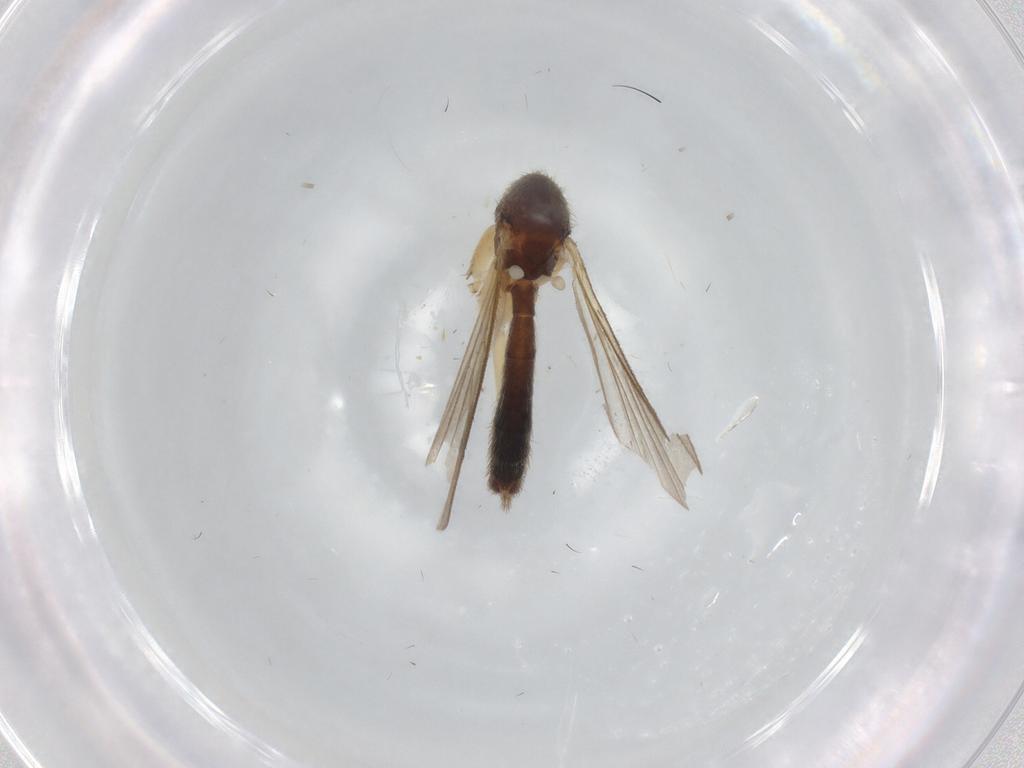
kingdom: Animalia
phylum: Arthropoda
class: Insecta
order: Diptera
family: Mycetophilidae
